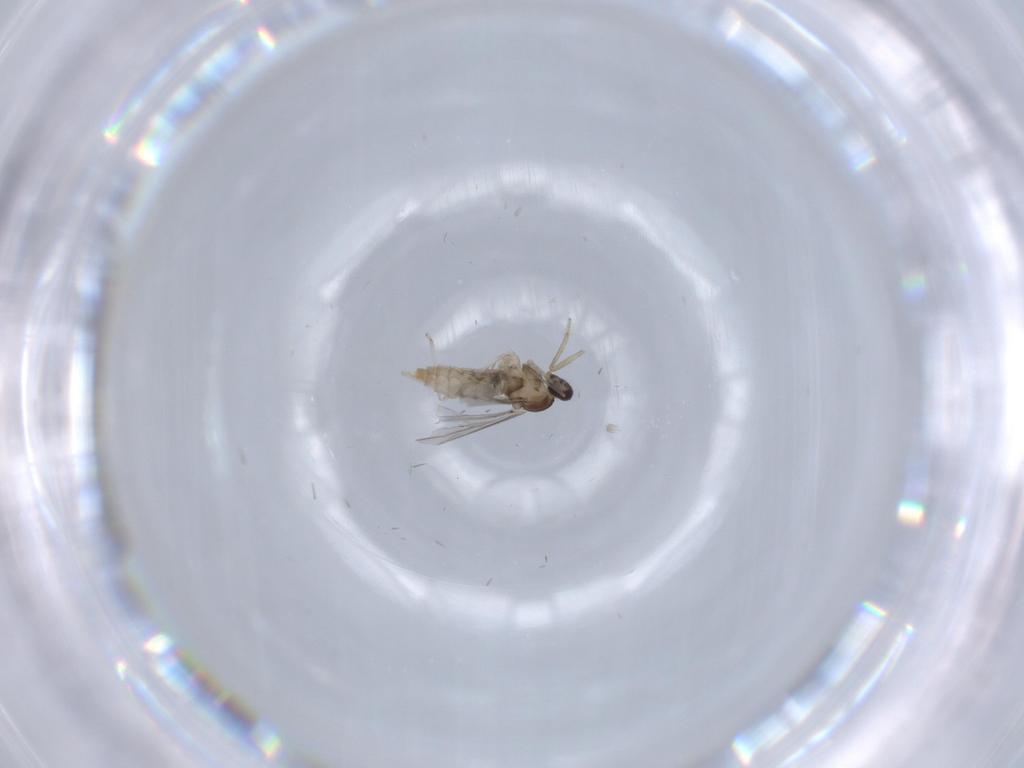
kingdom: Animalia
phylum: Arthropoda
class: Insecta
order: Diptera
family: Cecidomyiidae
